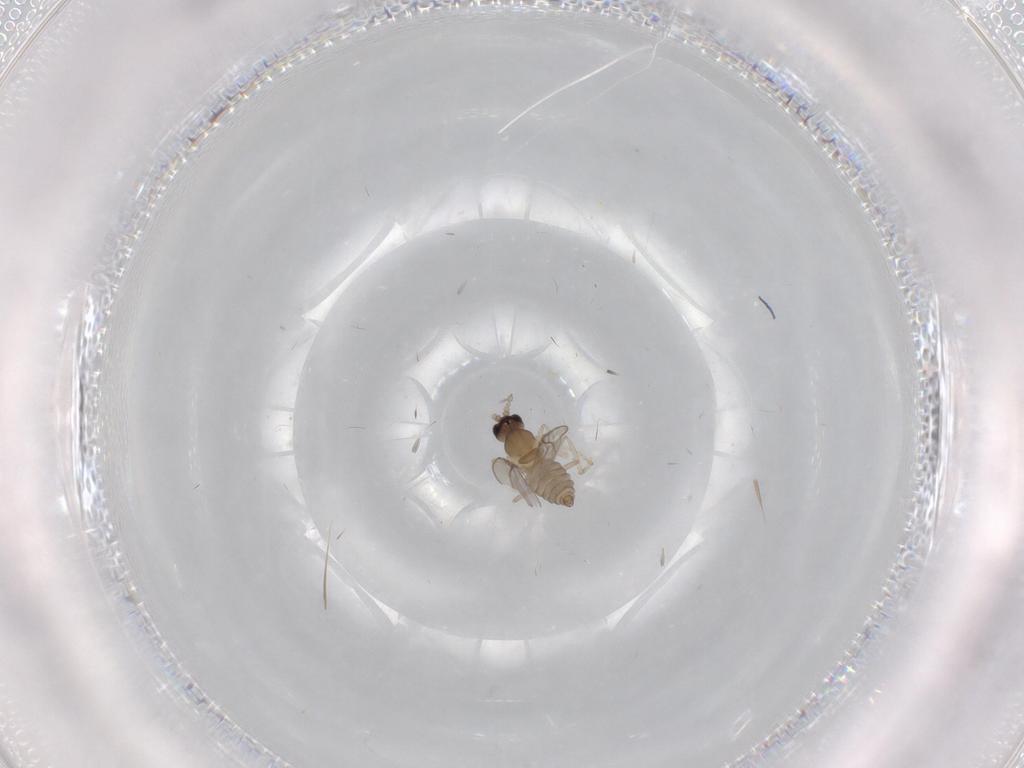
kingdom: Animalia
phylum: Arthropoda
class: Insecta
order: Diptera
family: Cecidomyiidae
